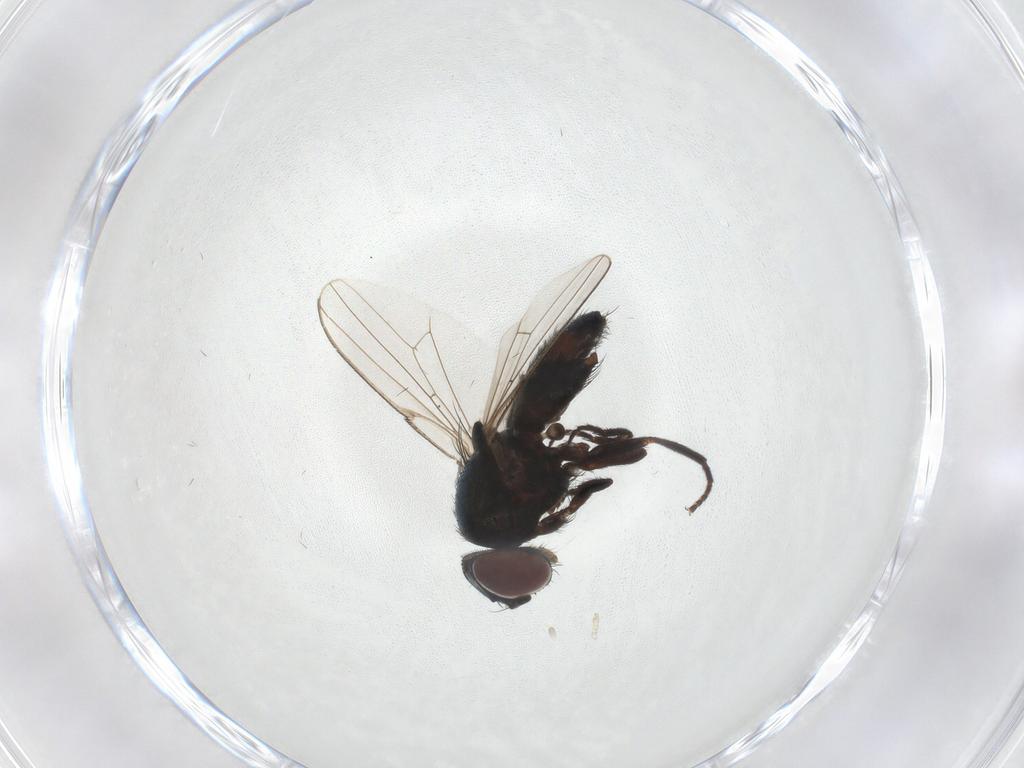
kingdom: Animalia
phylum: Arthropoda
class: Insecta
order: Diptera
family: Chloropidae
